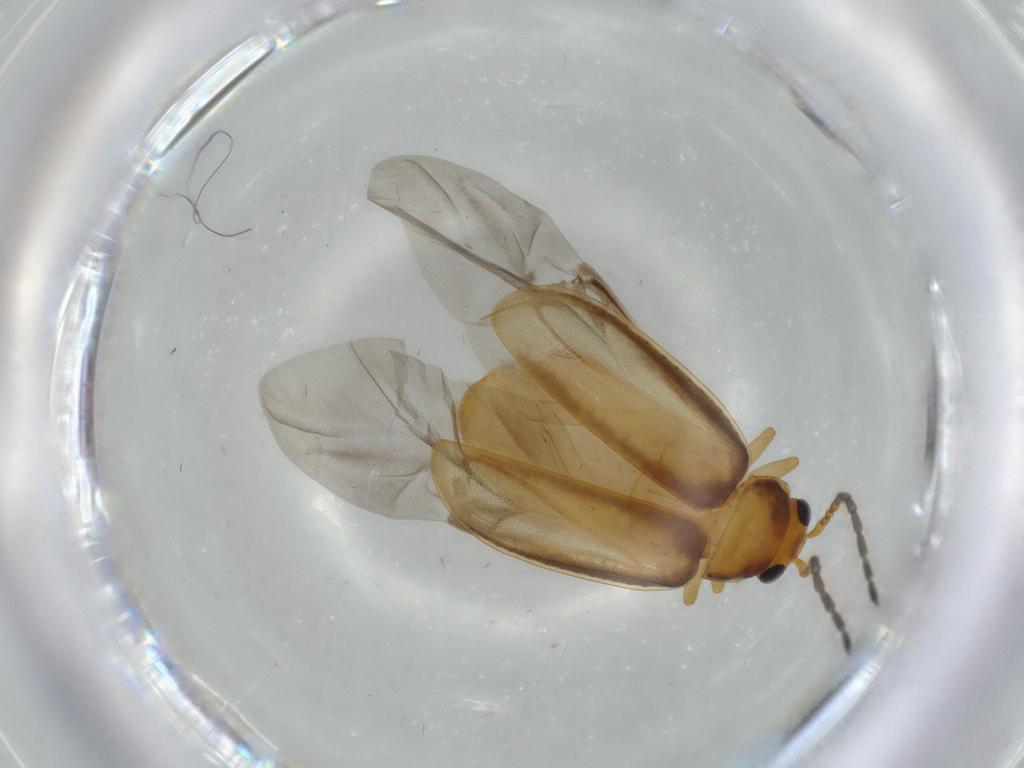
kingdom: Animalia
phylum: Arthropoda
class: Insecta
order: Coleoptera
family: Chrysomelidae
